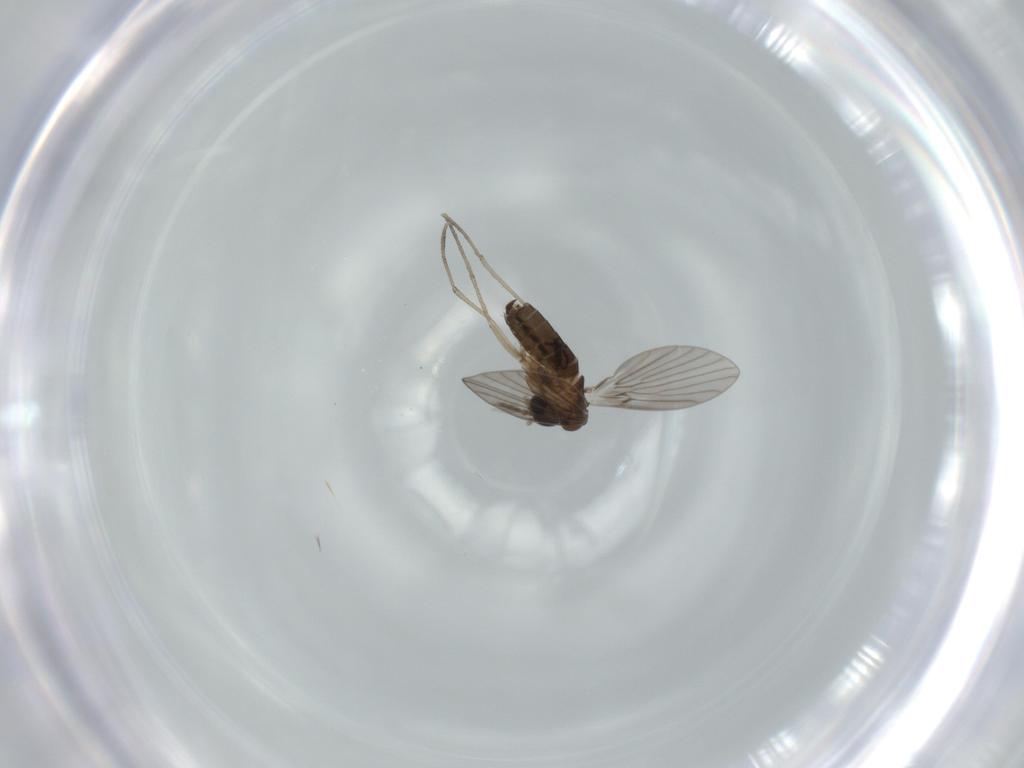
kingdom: Animalia
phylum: Arthropoda
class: Insecta
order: Diptera
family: Psychodidae
